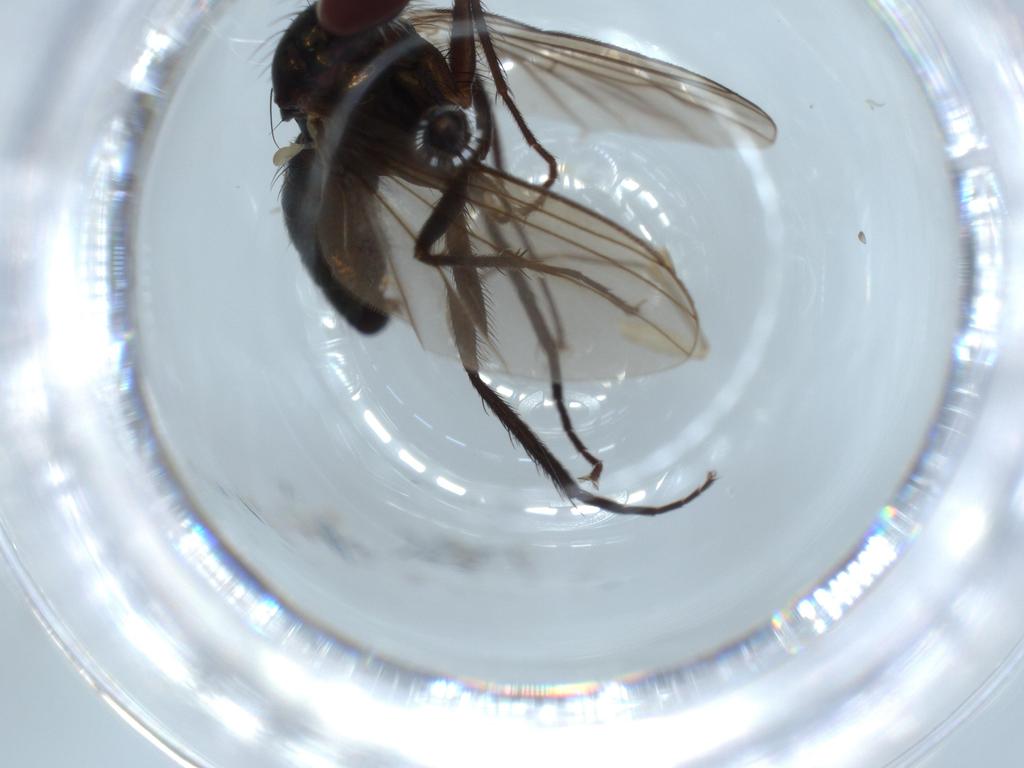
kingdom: Animalia
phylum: Arthropoda
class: Insecta
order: Diptera
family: Dolichopodidae
